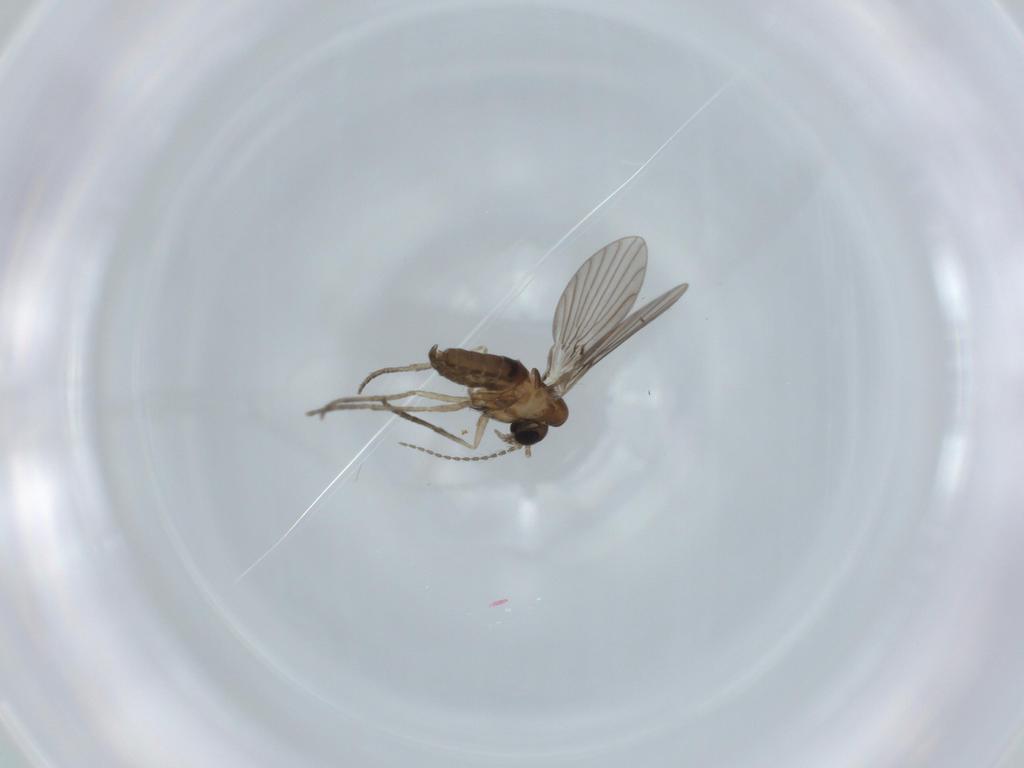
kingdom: Animalia
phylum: Arthropoda
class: Insecta
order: Diptera
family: Psychodidae
